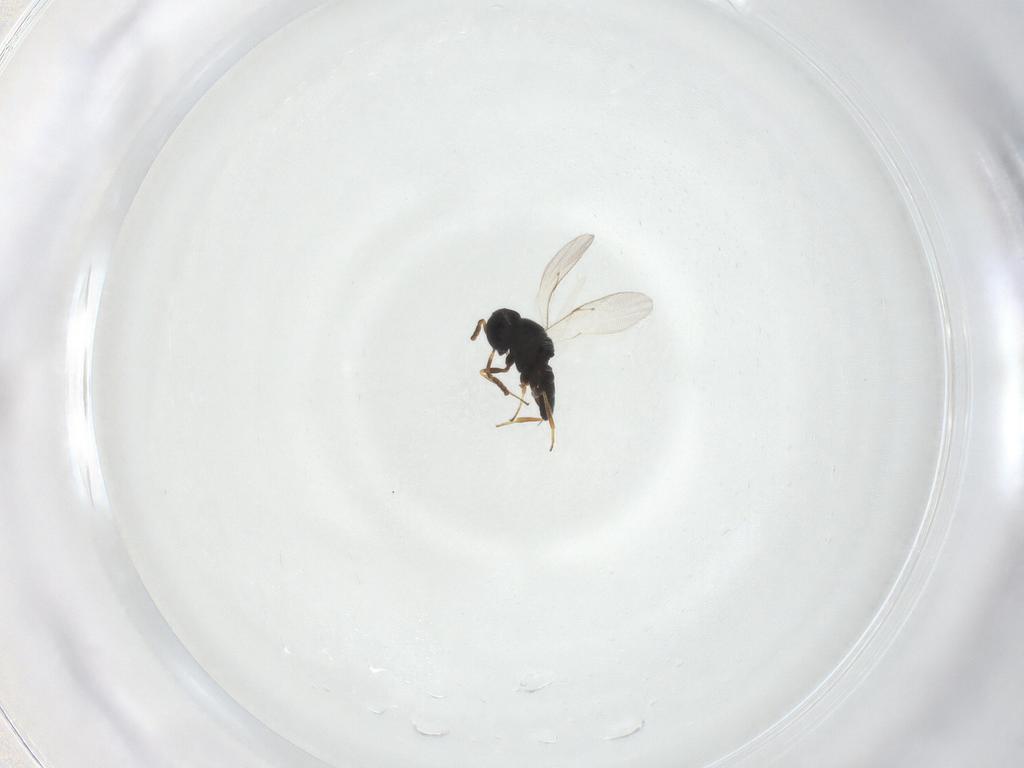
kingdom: Animalia
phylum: Arthropoda
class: Insecta
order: Hymenoptera
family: Scelionidae
